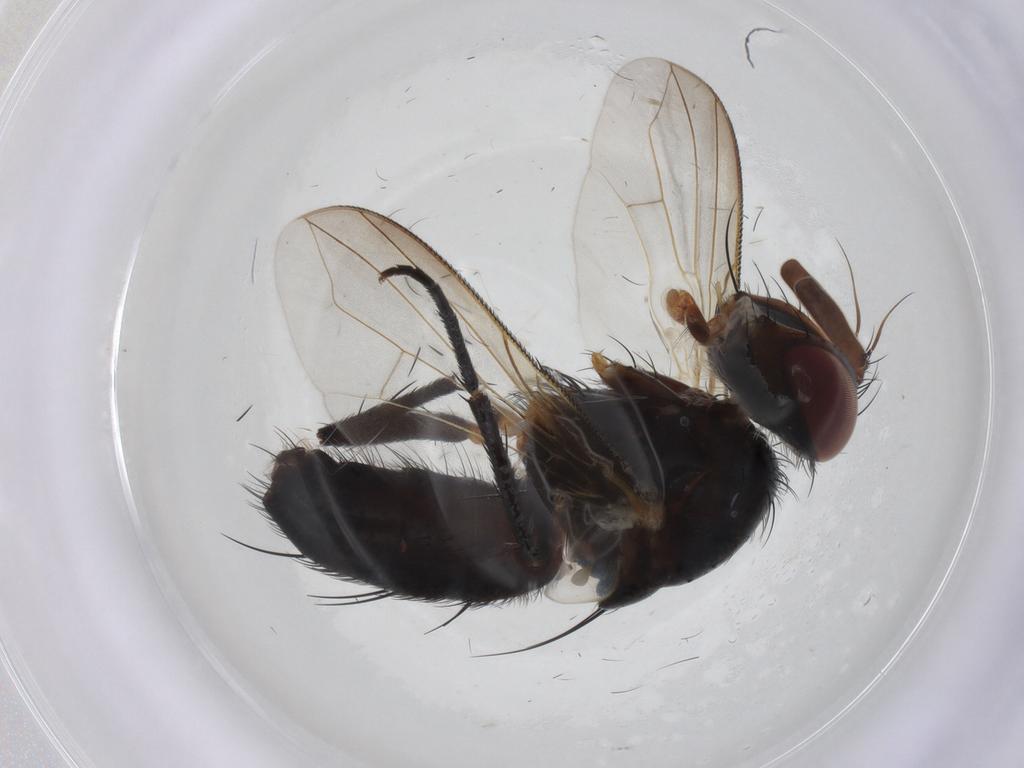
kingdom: Animalia
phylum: Arthropoda
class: Insecta
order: Diptera
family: Tachinidae
